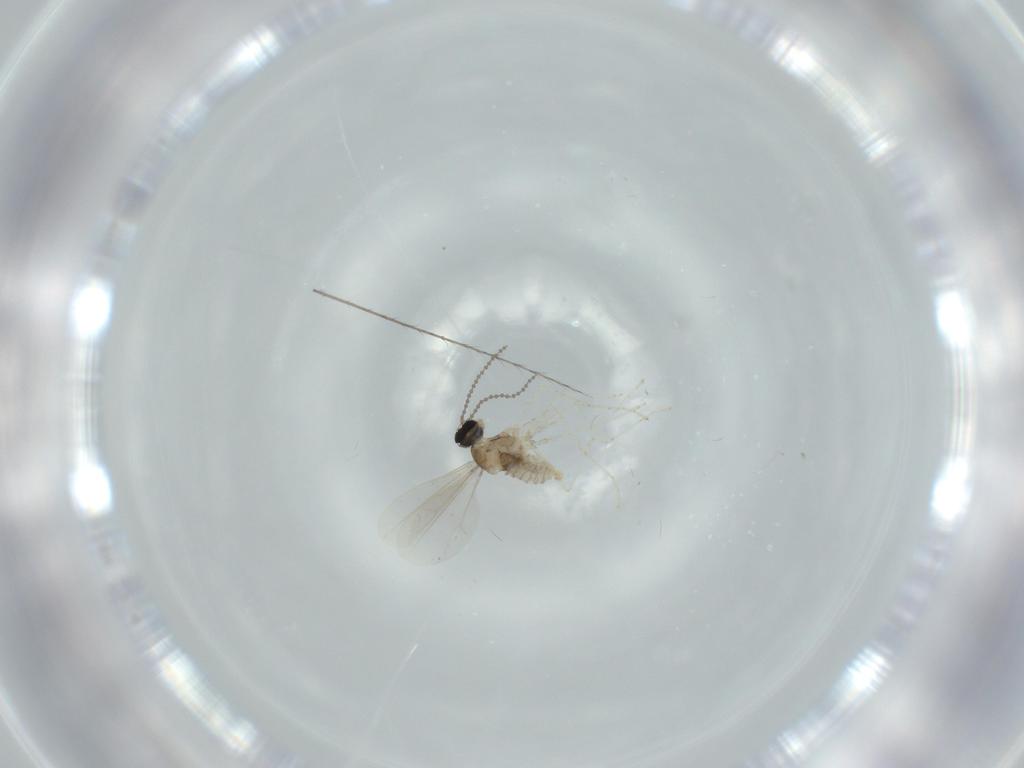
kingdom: Animalia
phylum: Arthropoda
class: Insecta
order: Diptera
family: Cecidomyiidae
